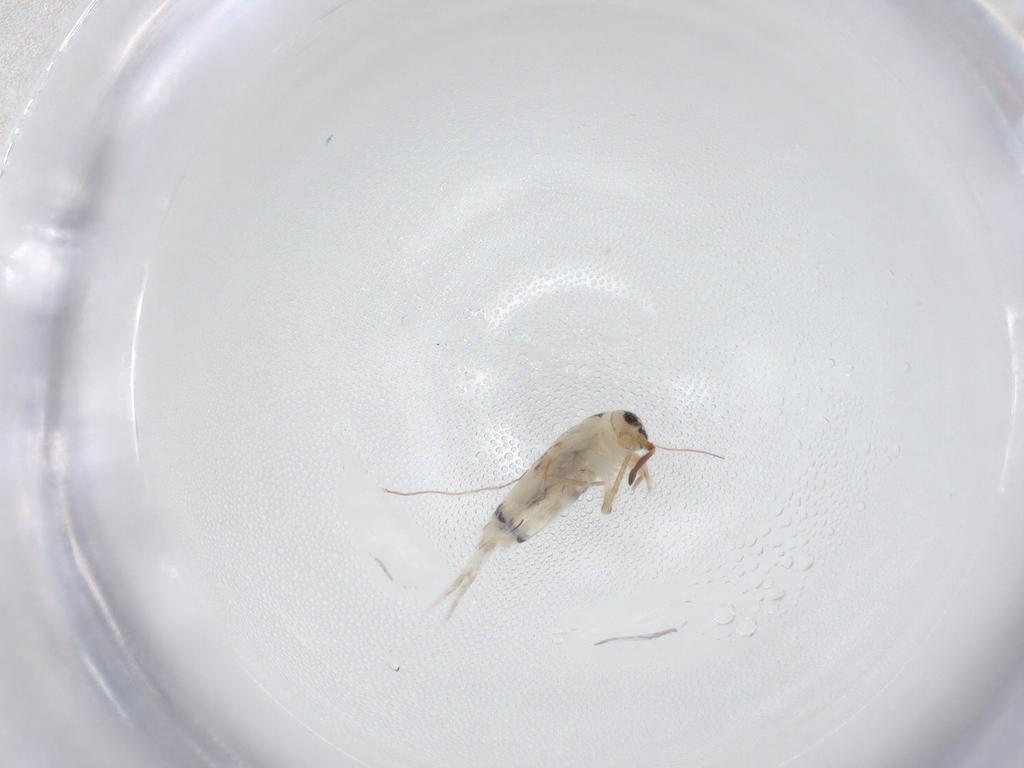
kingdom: Animalia
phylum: Arthropoda
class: Collembola
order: Entomobryomorpha
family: Entomobryidae
